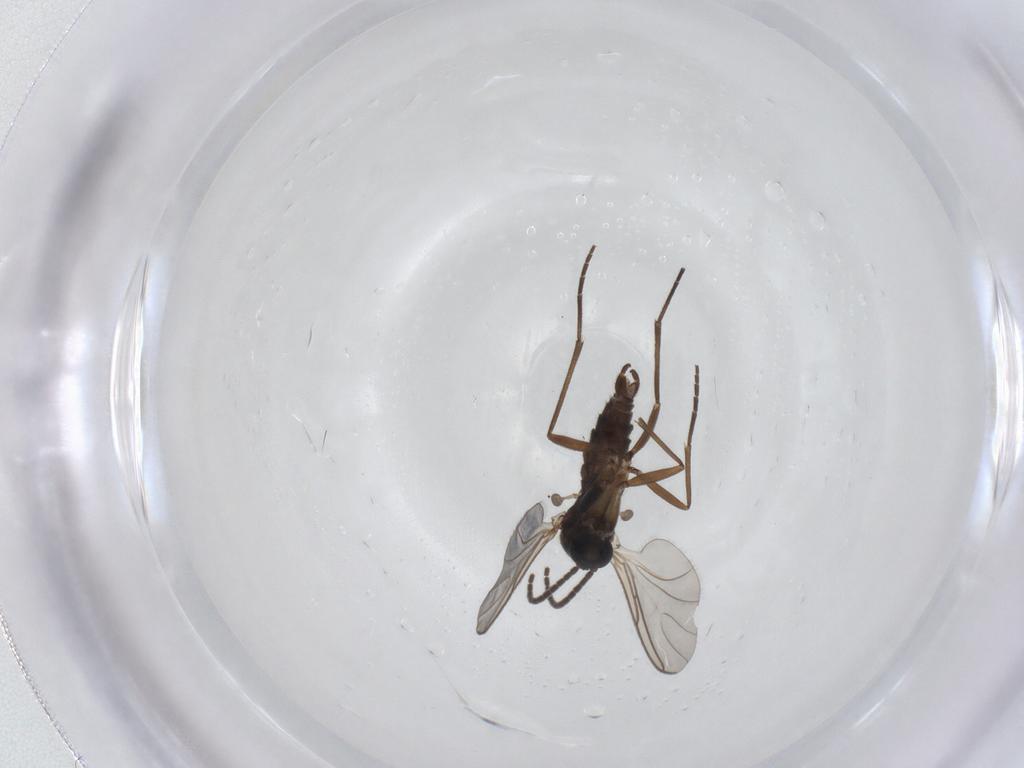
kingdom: Animalia
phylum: Arthropoda
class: Insecta
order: Diptera
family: Sciaridae
